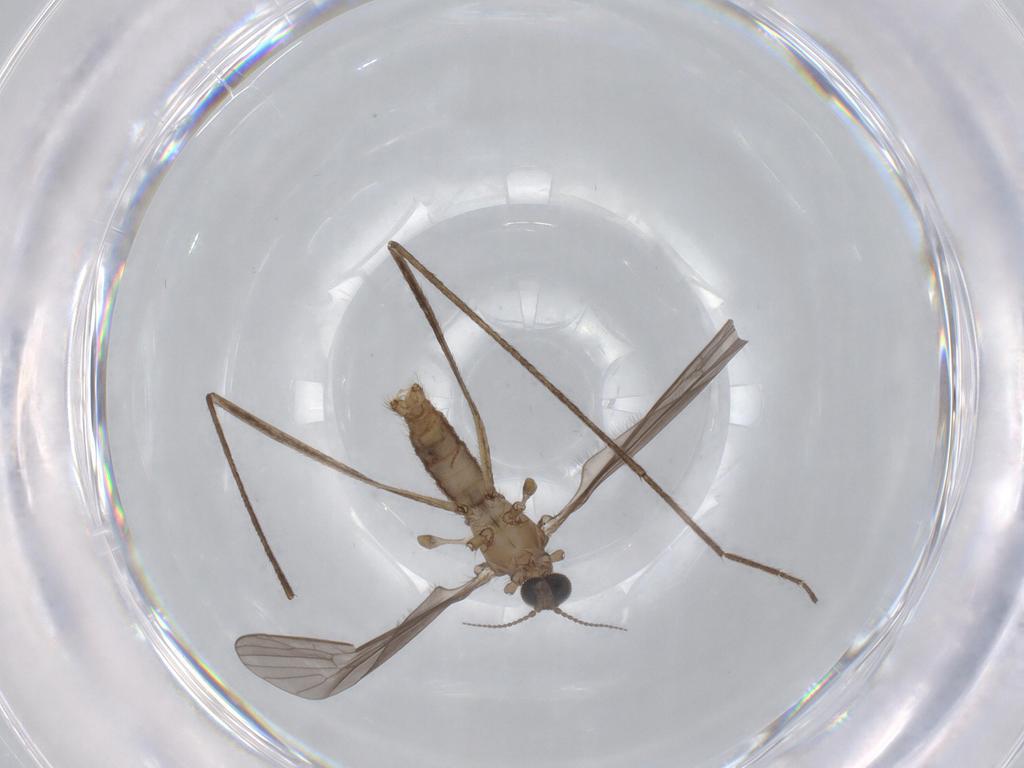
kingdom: Animalia
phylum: Arthropoda
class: Insecta
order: Diptera
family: Limoniidae
